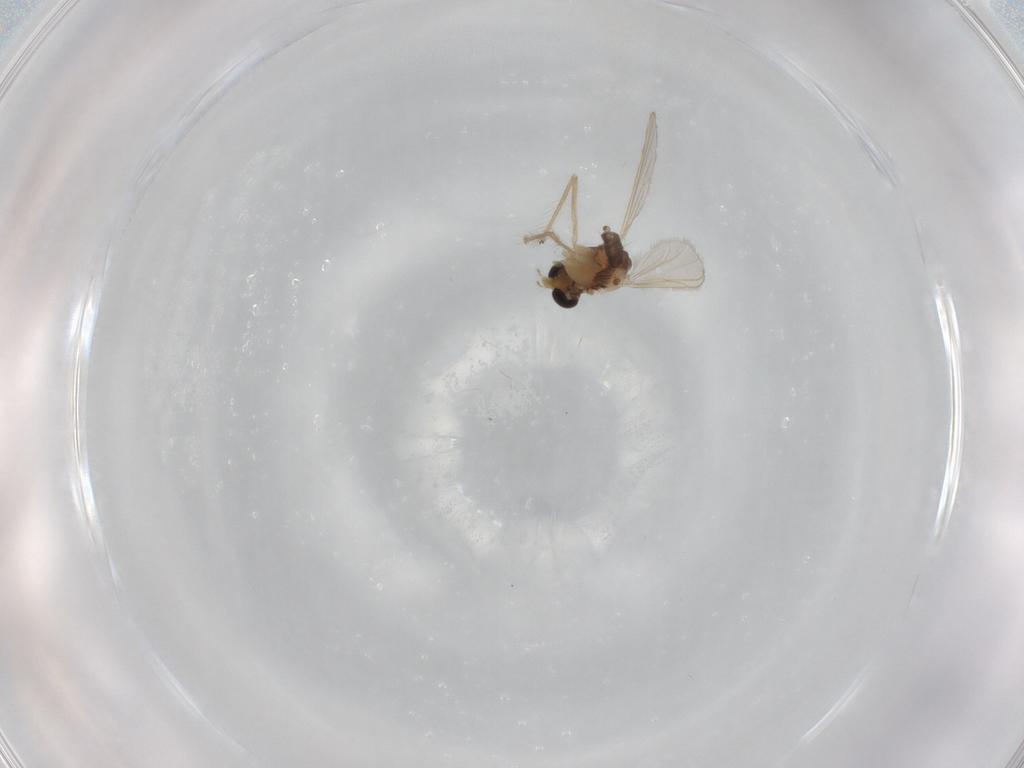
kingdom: Animalia
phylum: Arthropoda
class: Insecta
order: Diptera
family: Chironomidae
